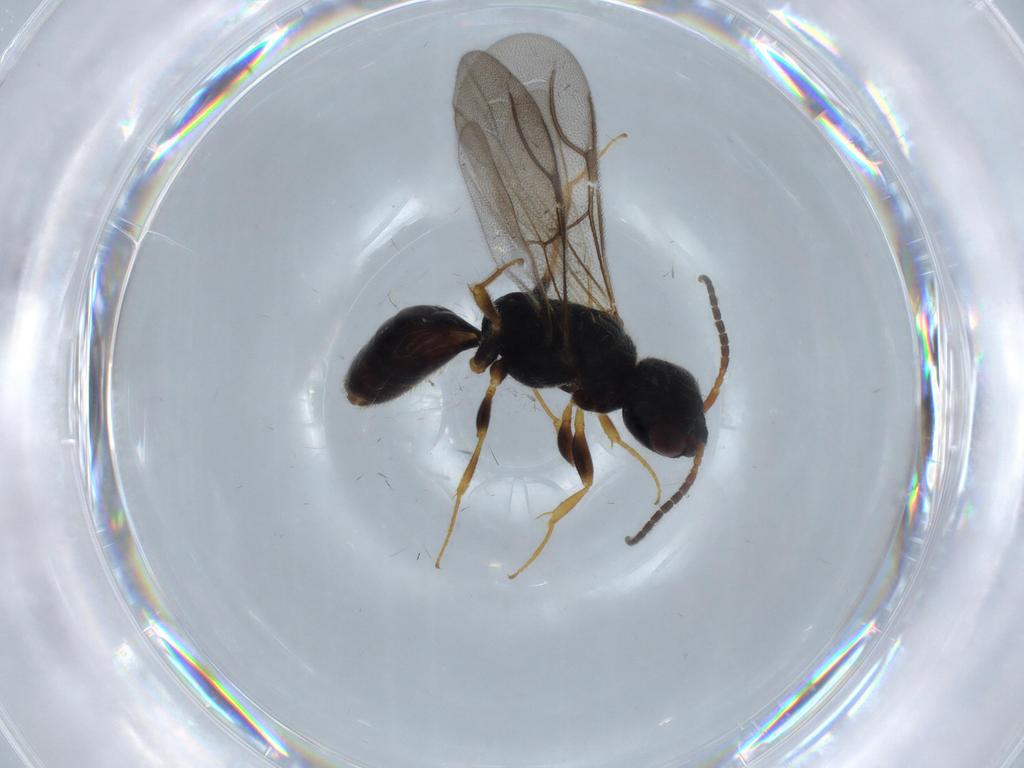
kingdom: Animalia
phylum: Arthropoda
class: Insecta
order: Hymenoptera
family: Bethylidae
